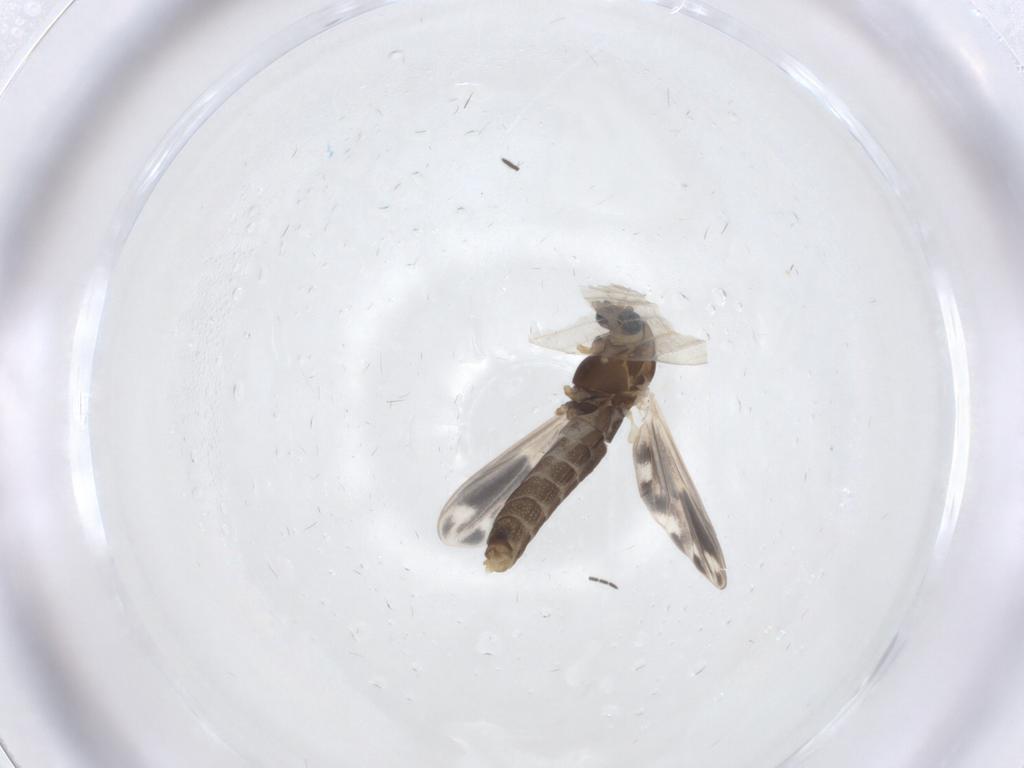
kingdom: Animalia
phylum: Arthropoda
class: Insecta
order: Diptera
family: Chironomidae
